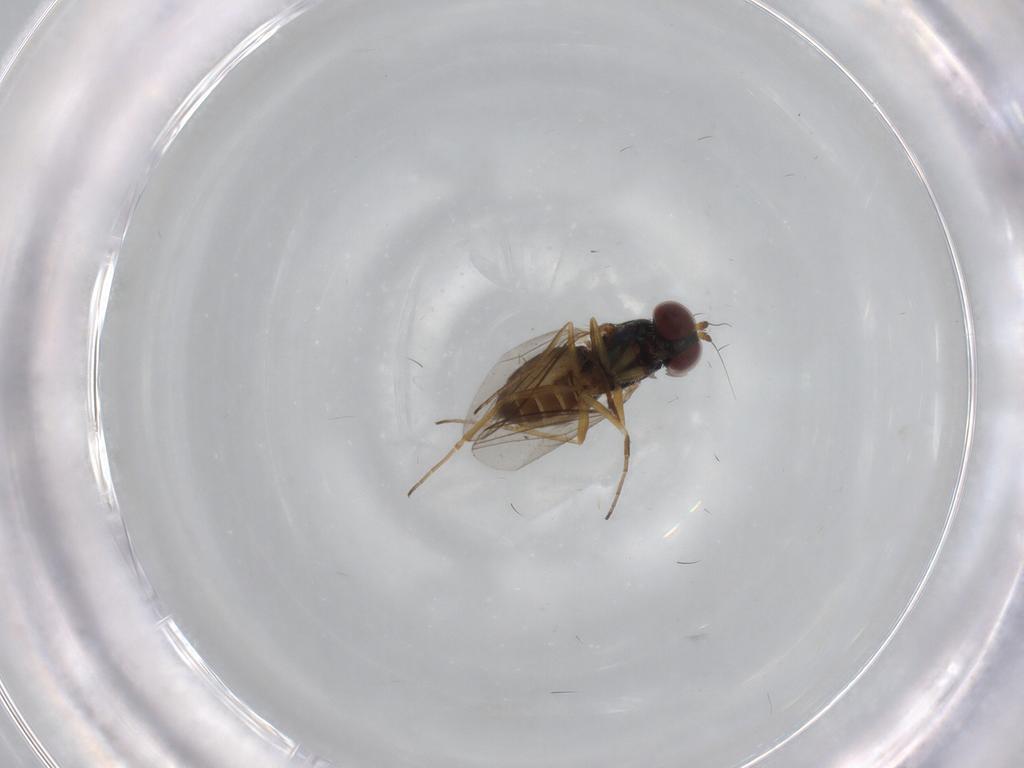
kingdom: Animalia
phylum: Arthropoda
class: Insecta
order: Diptera
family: Dolichopodidae
